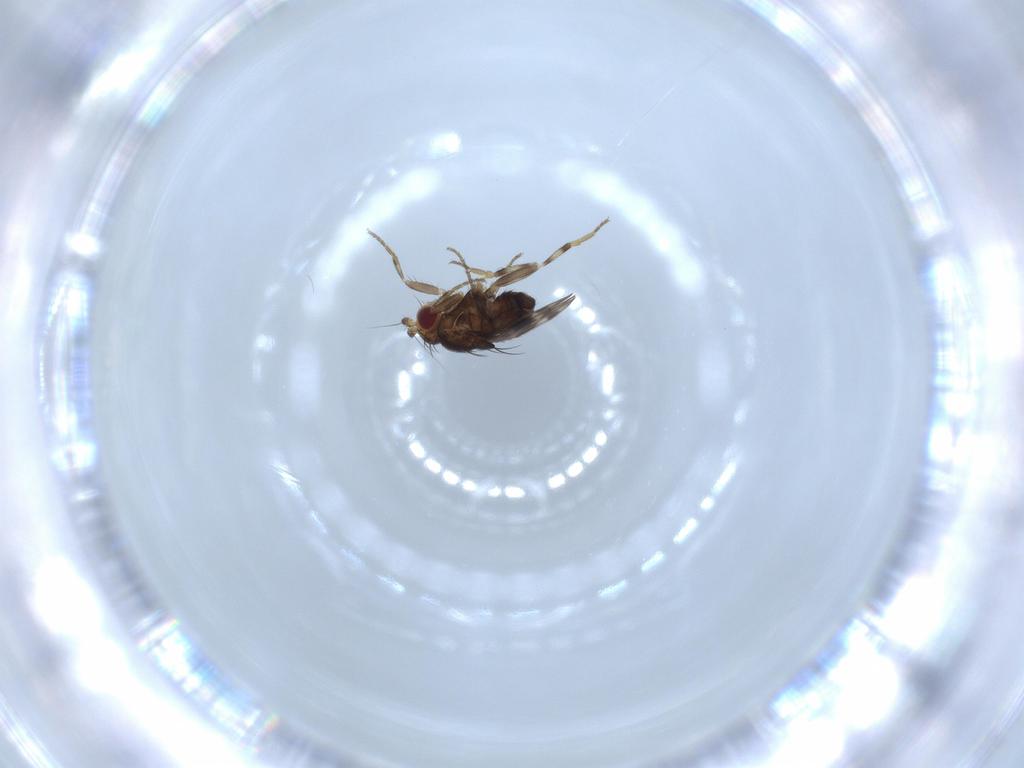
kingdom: Animalia
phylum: Arthropoda
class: Insecta
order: Diptera
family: Sphaeroceridae
